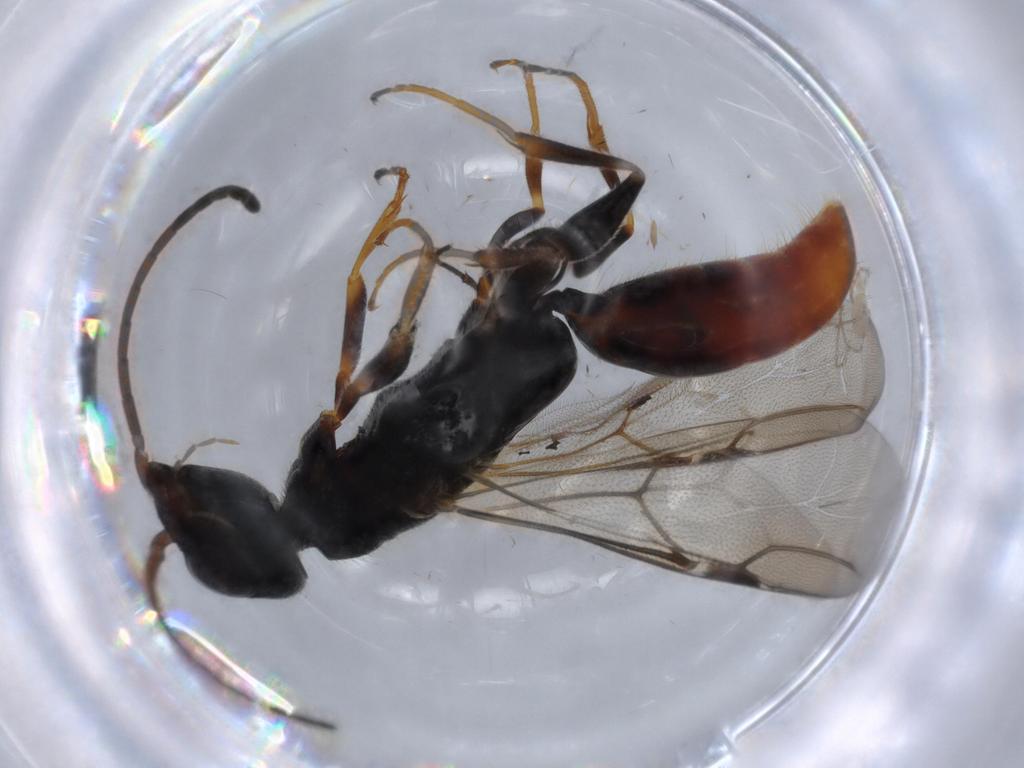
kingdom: Animalia
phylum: Arthropoda
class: Insecta
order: Hymenoptera
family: Bethylidae
